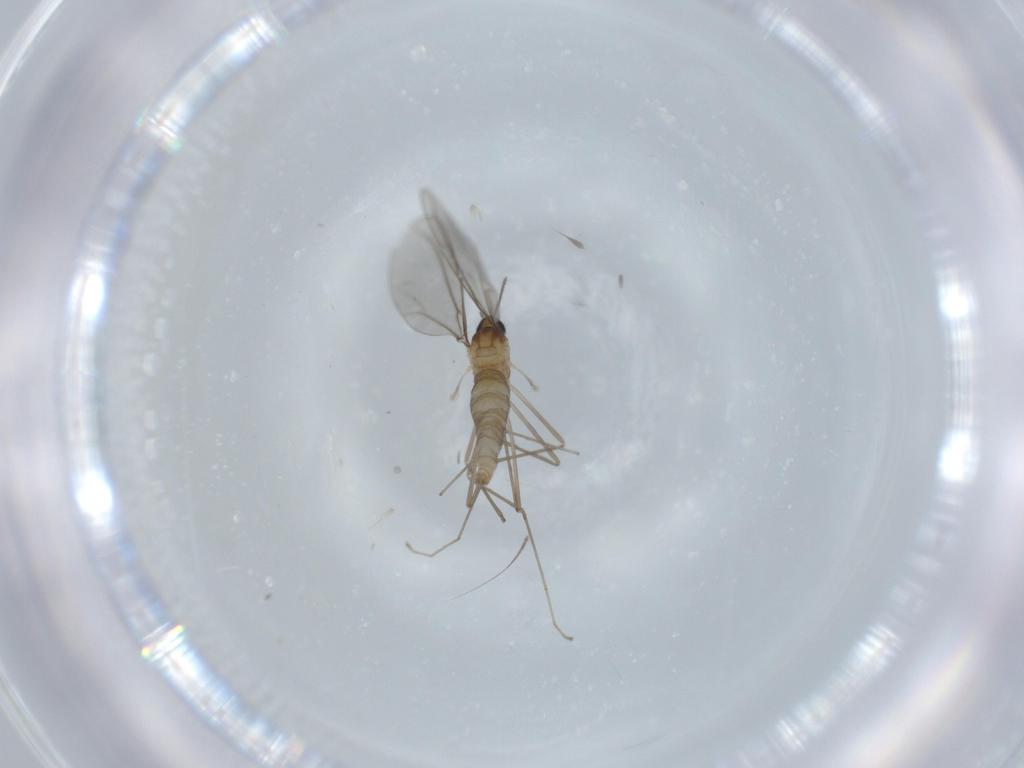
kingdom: Animalia
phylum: Arthropoda
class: Insecta
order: Diptera
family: Cecidomyiidae
